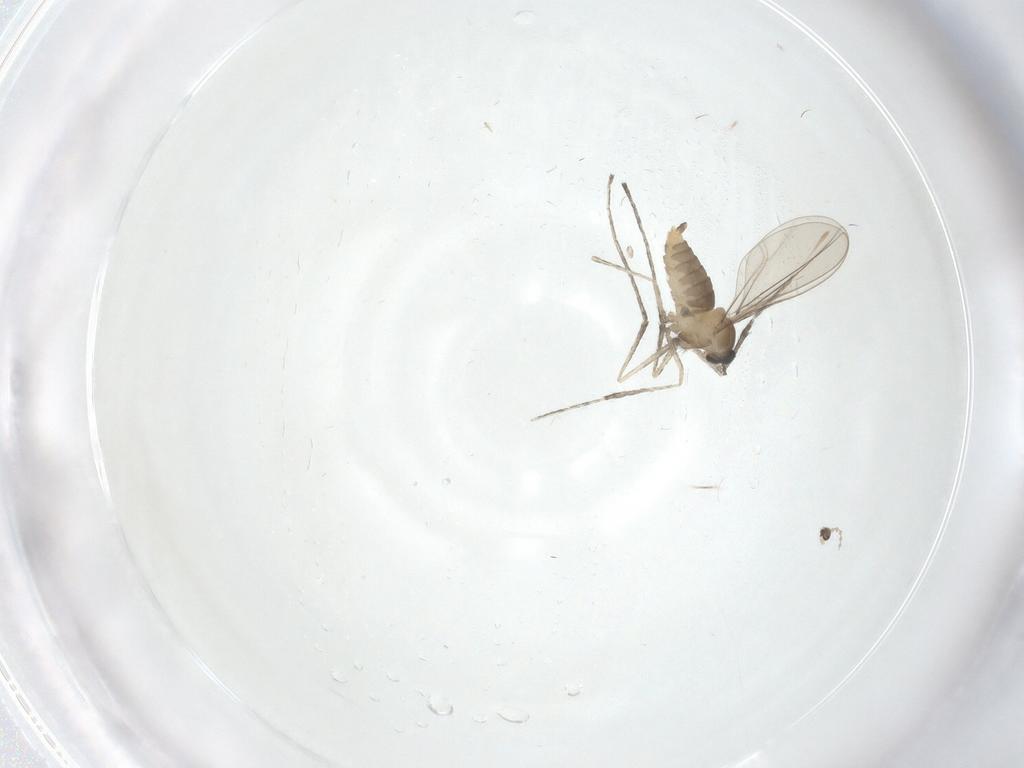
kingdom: Animalia
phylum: Arthropoda
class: Insecta
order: Diptera
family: Cecidomyiidae
